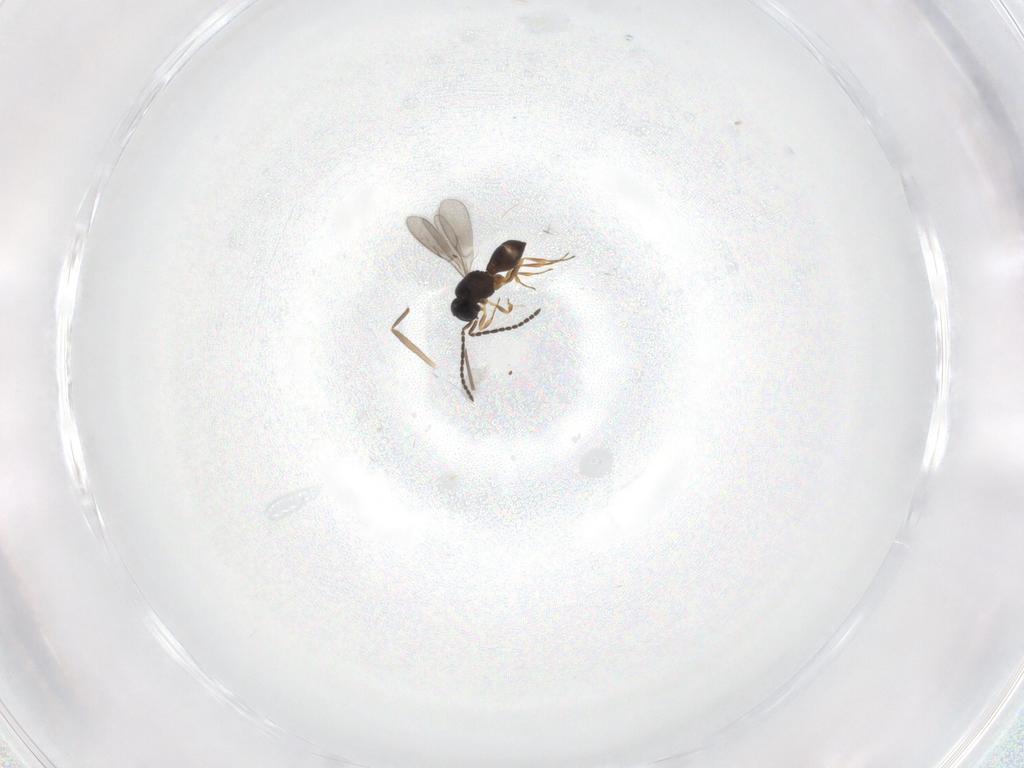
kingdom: Animalia
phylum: Arthropoda
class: Insecta
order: Hymenoptera
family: Scelionidae
